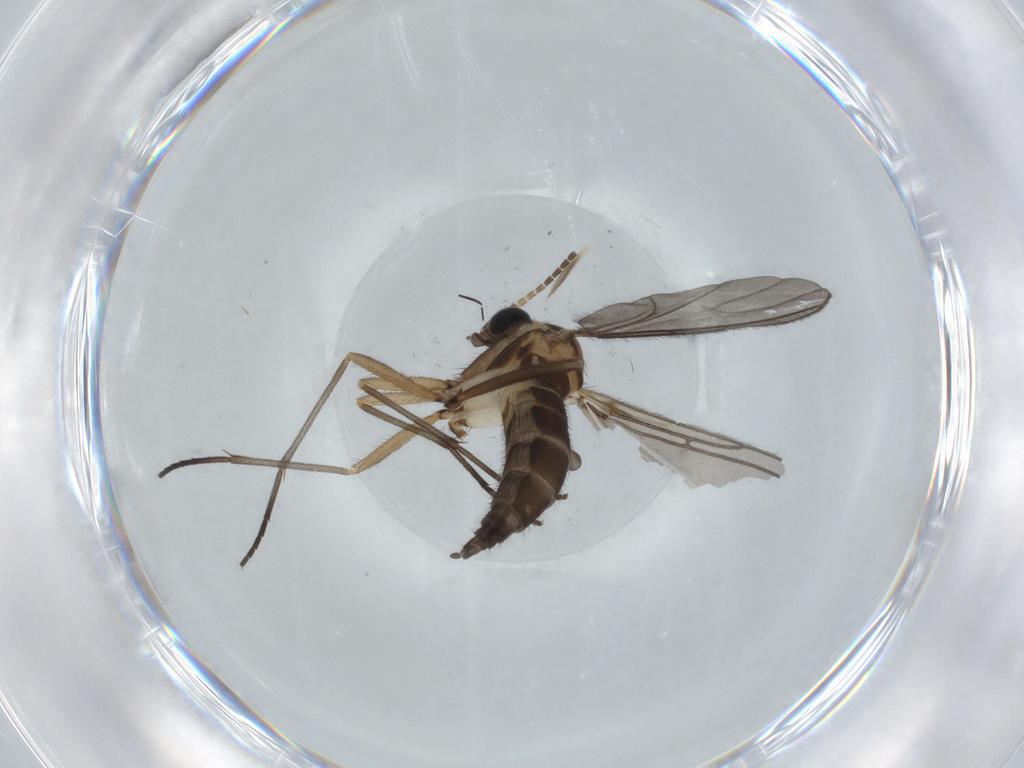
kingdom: Animalia
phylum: Arthropoda
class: Insecta
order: Diptera
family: Sciaridae
